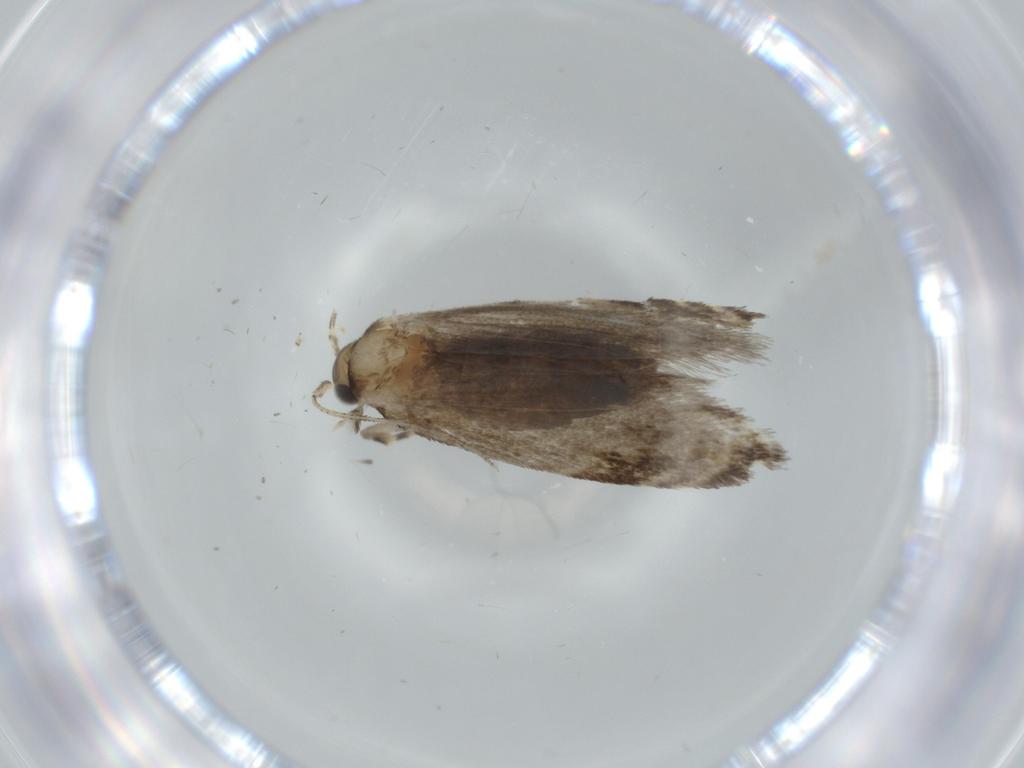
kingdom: Animalia
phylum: Arthropoda
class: Insecta
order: Lepidoptera
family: Tineidae
